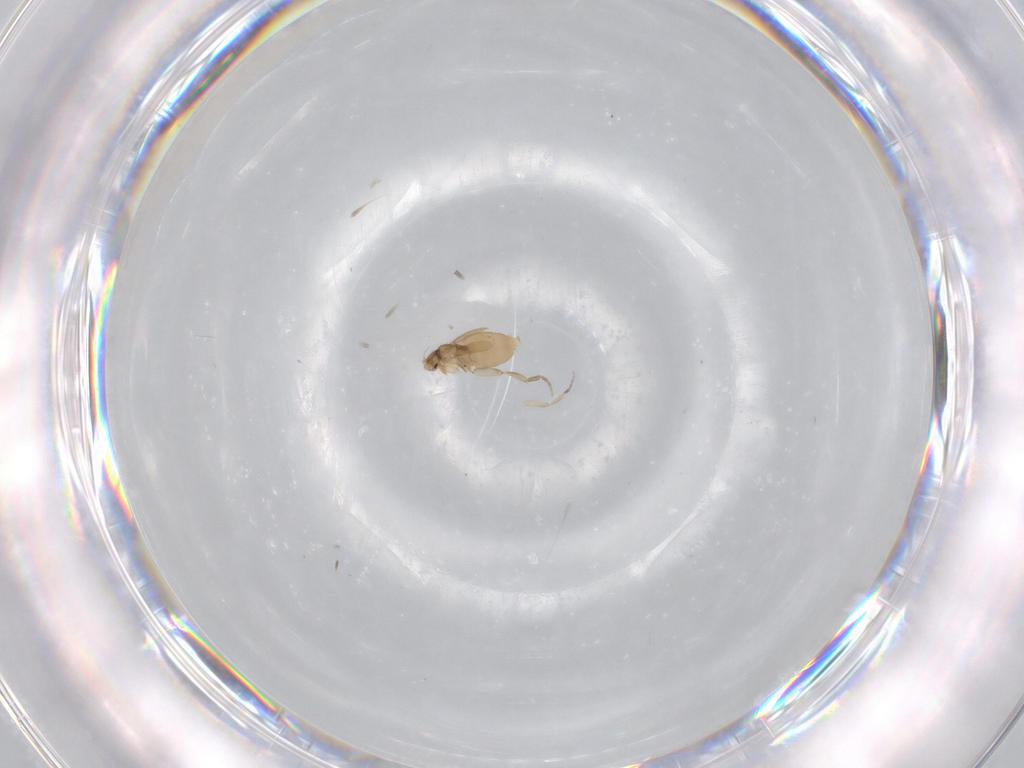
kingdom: Animalia
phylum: Arthropoda
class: Insecta
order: Diptera
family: Phoridae
